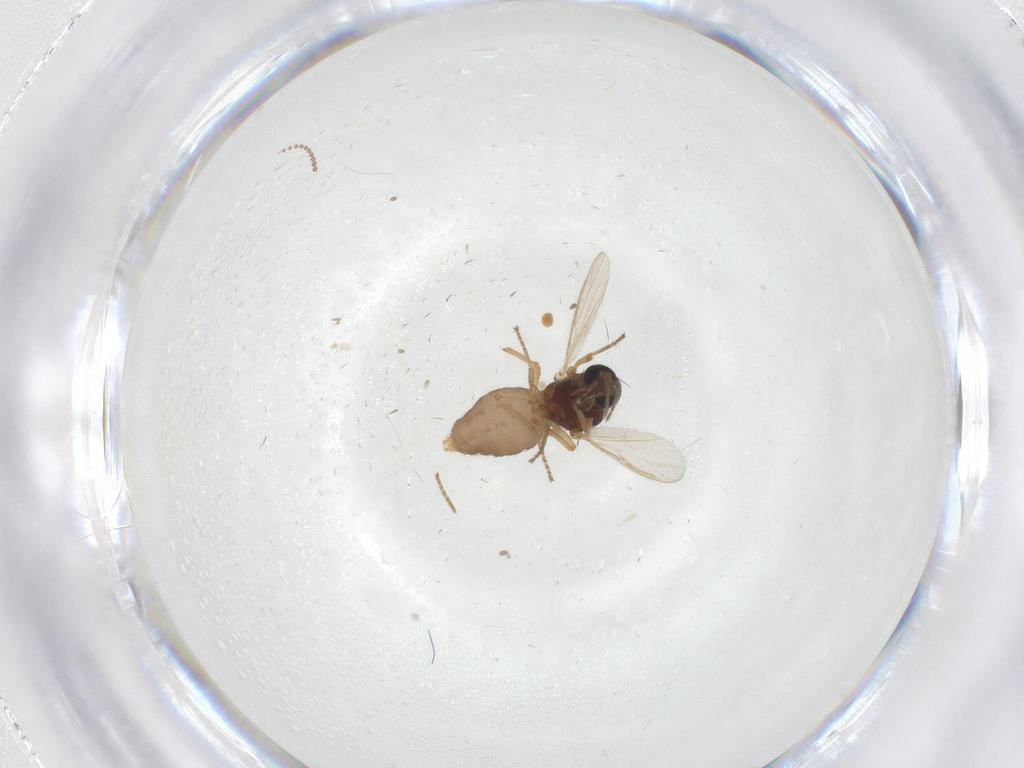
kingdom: Animalia
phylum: Arthropoda
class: Insecta
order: Diptera
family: Ceratopogonidae
